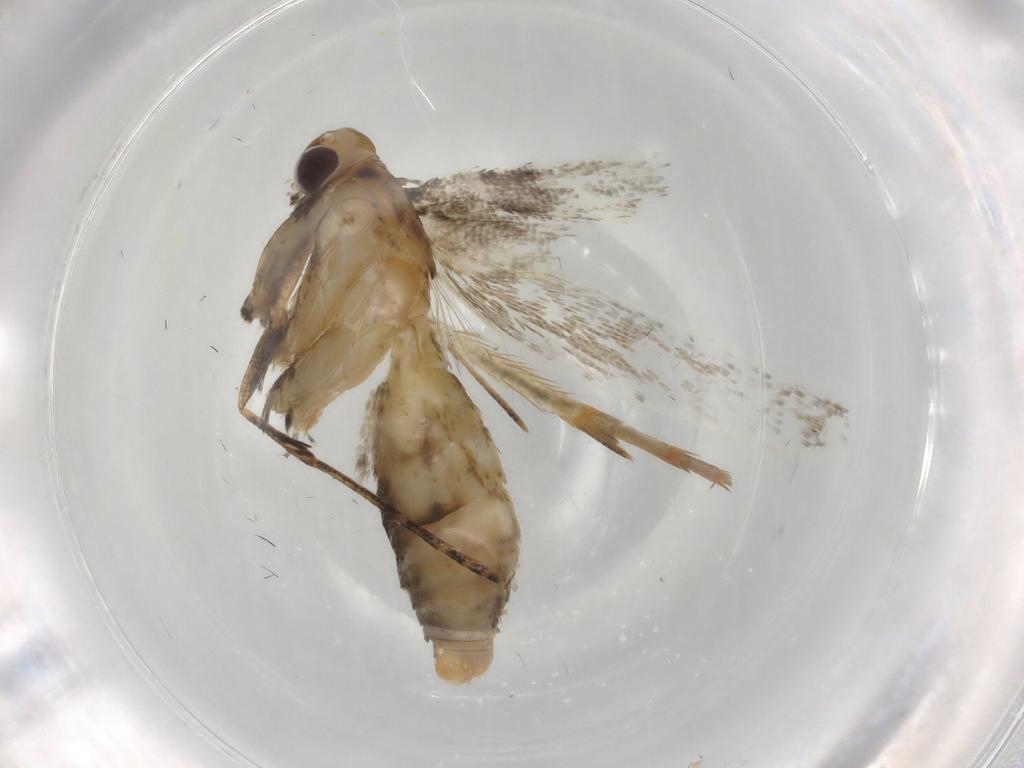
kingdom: Animalia
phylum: Arthropoda
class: Insecta
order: Lepidoptera
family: Epermeniidae
